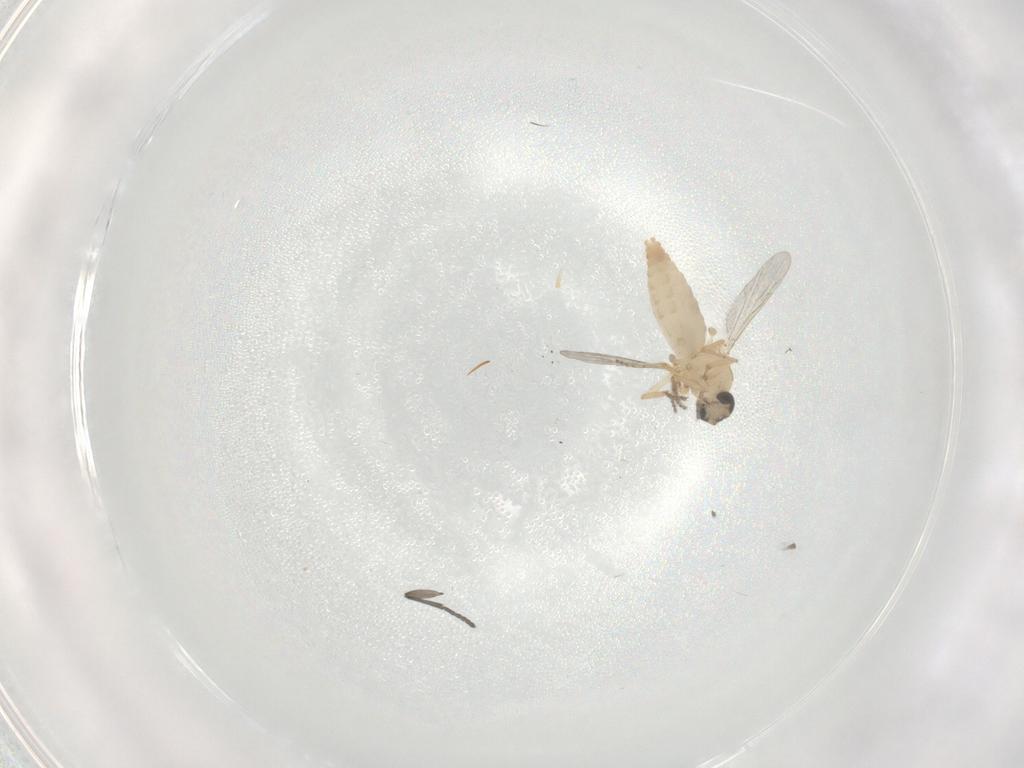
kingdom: Animalia
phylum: Arthropoda
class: Insecta
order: Diptera
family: Ceratopogonidae
